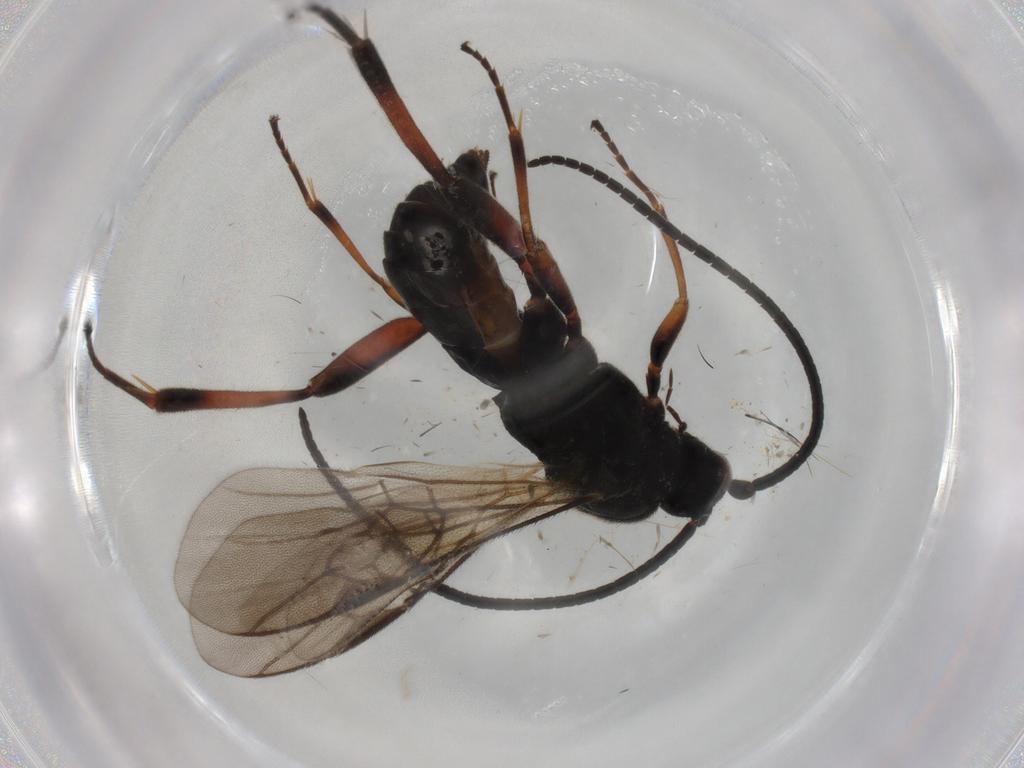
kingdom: Animalia
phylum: Arthropoda
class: Insecta
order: Hymenoptera
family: Braconidae
